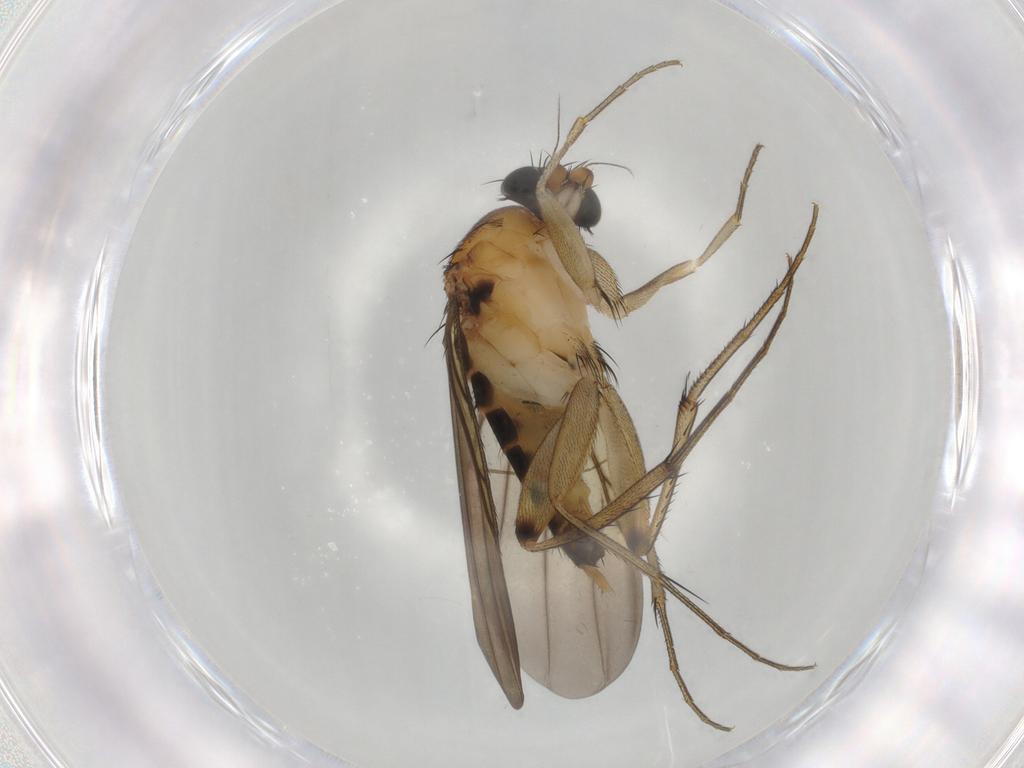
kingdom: Animalia
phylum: Arthropoda
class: Insecta
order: Diptera
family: Phoridae
